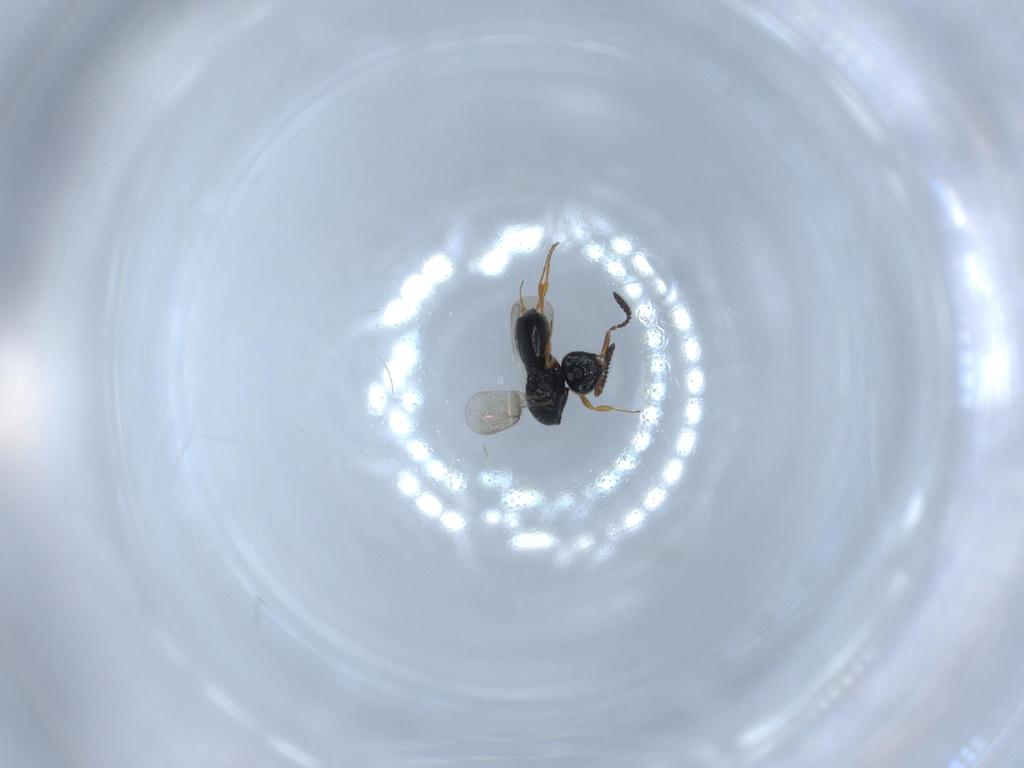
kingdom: Animalia
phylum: Arthropoda
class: Insecta
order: Hymenoptera
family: Scelionidae
